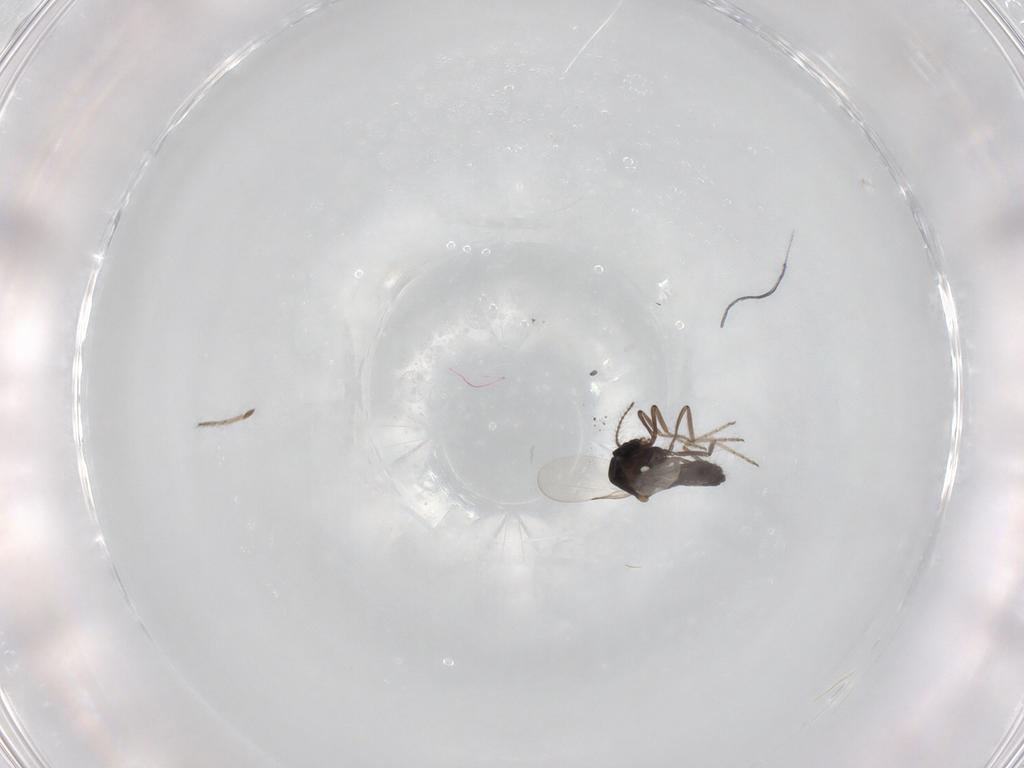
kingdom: Animalia
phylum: Arthropoda
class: Insecta
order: Diptera
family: Ceratopogonidae
